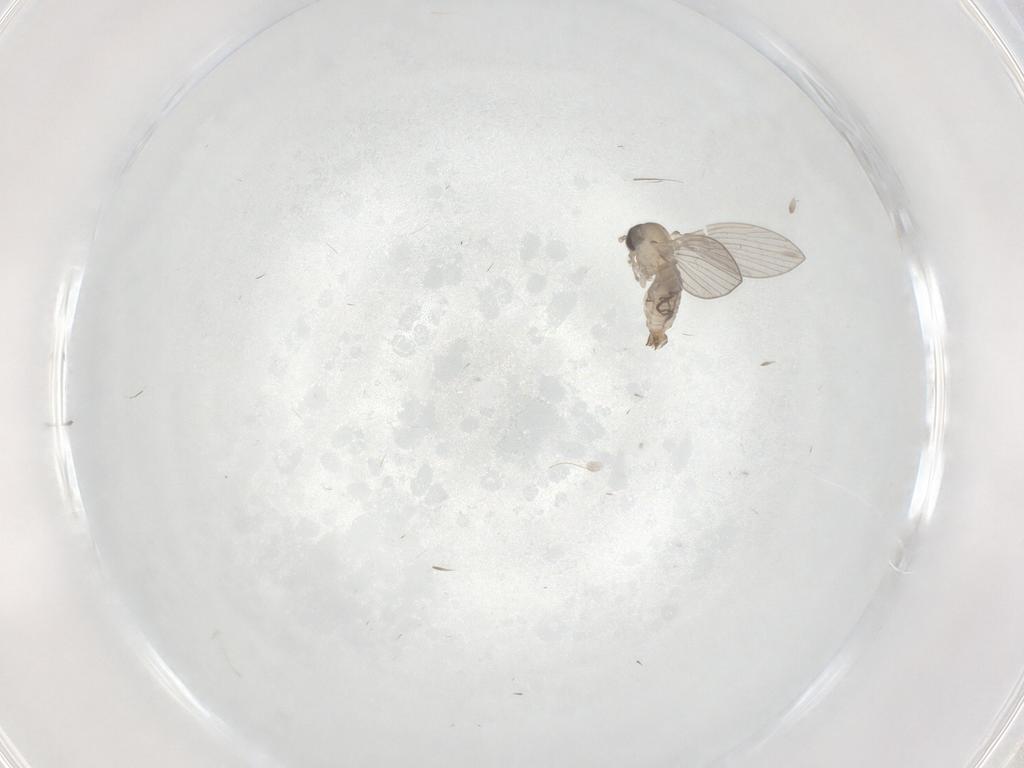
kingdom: Animalia
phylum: Arthropoda
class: Insecta
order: Diptera
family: Psychodidae
